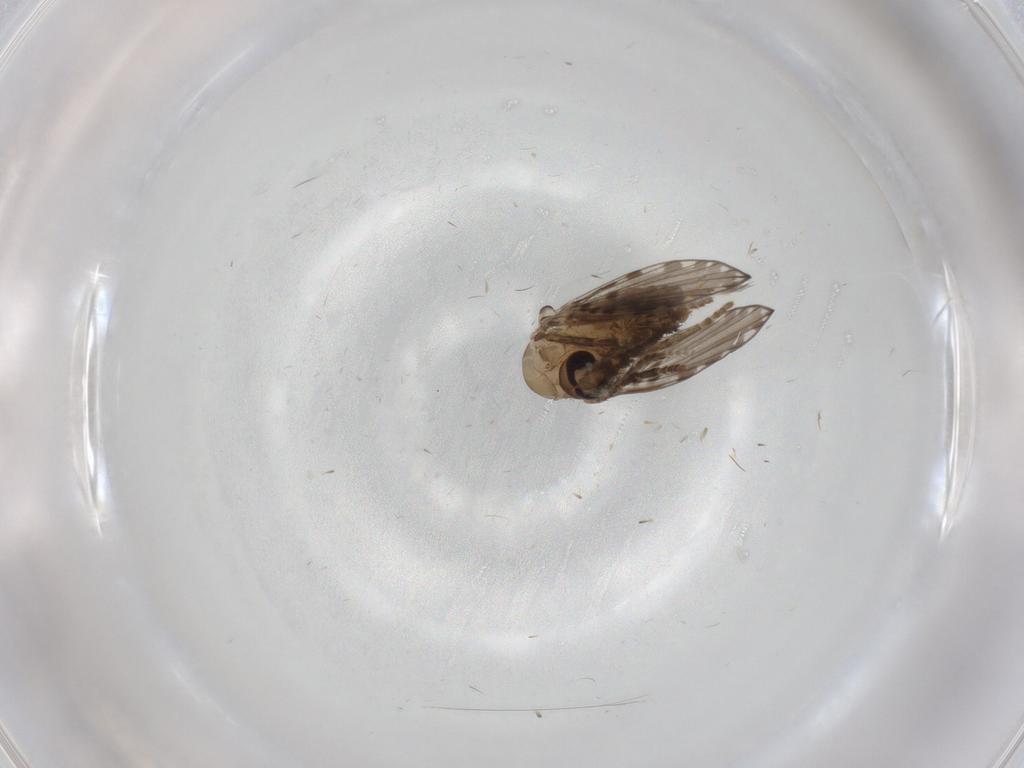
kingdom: Animalia
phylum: Arthropoda
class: Insecta
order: Diptera
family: Psychodidae
